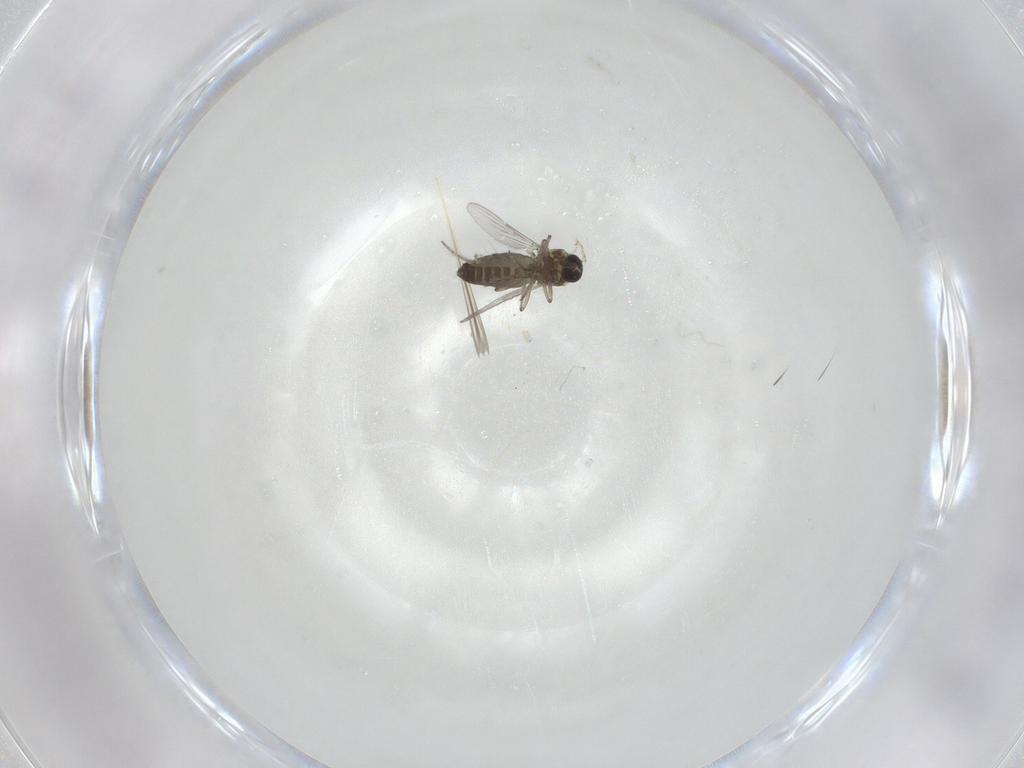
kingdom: Animalia
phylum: Arthropoda
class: Insecta
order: Diptera
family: Chironomidae
